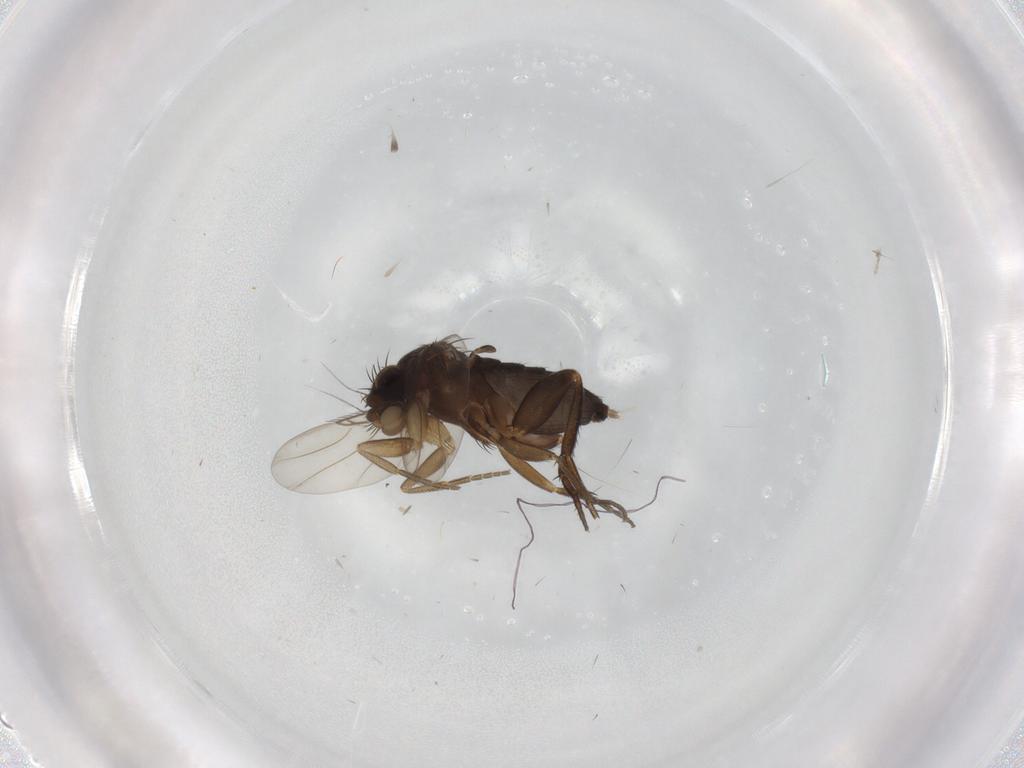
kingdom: Animalia
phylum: Arthropoda
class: Insecta
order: Diptera
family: Phoridae
